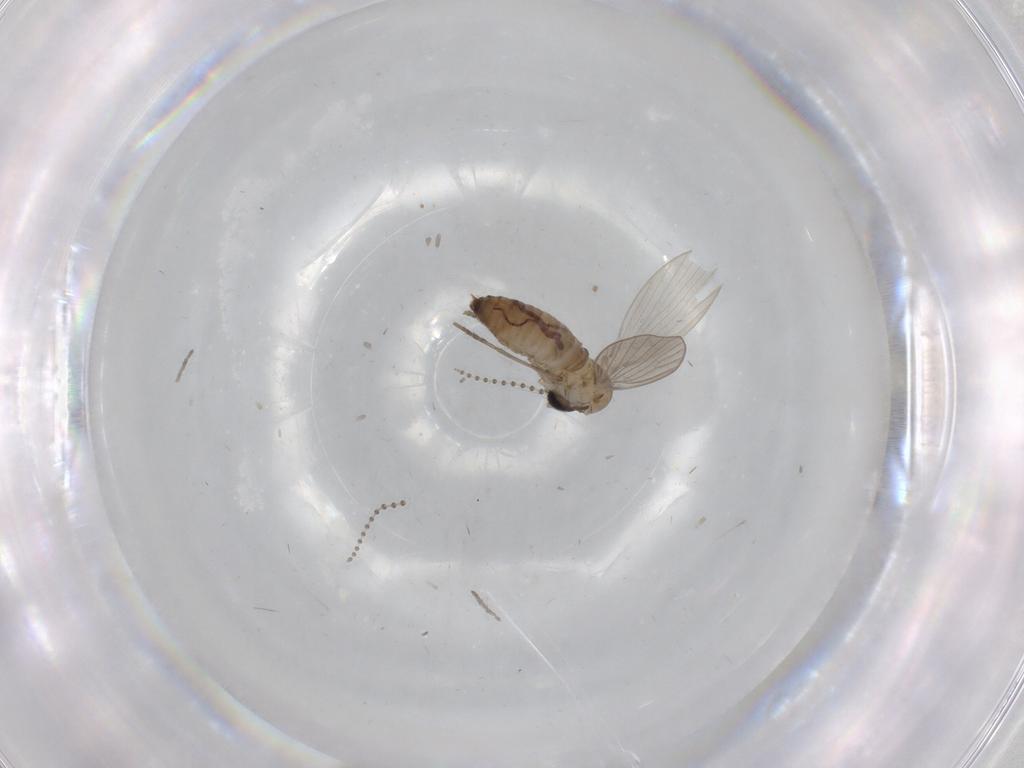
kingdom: Animalia
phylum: Arthropoda
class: Insecta
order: Diptera
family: Psychodidae
